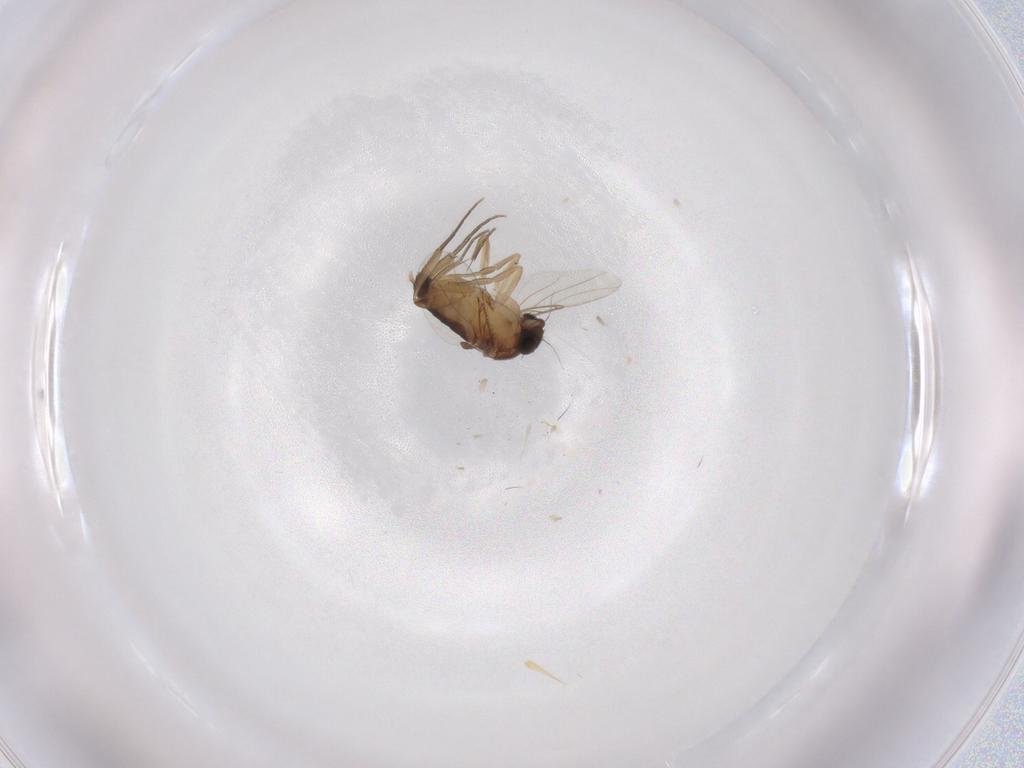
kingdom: Animalia
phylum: Arthropoda
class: Insecta
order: Diptera
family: Phoridae
